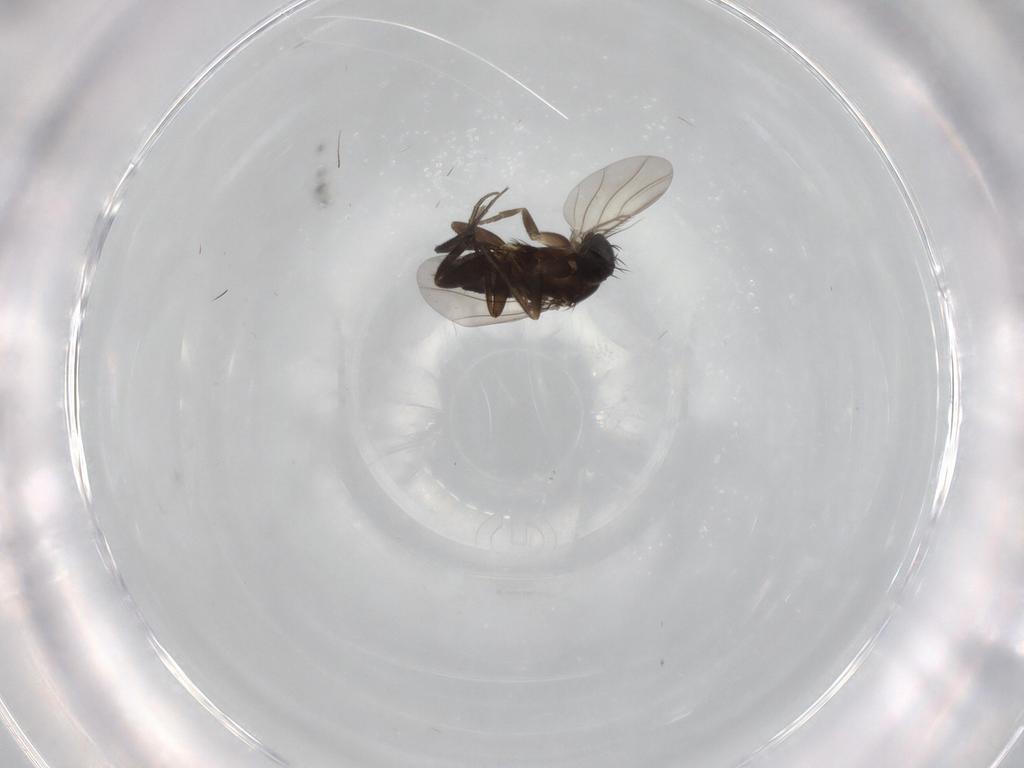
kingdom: Animalia
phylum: Arthropoda
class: Insecta
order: Diptera
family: Phoridae
